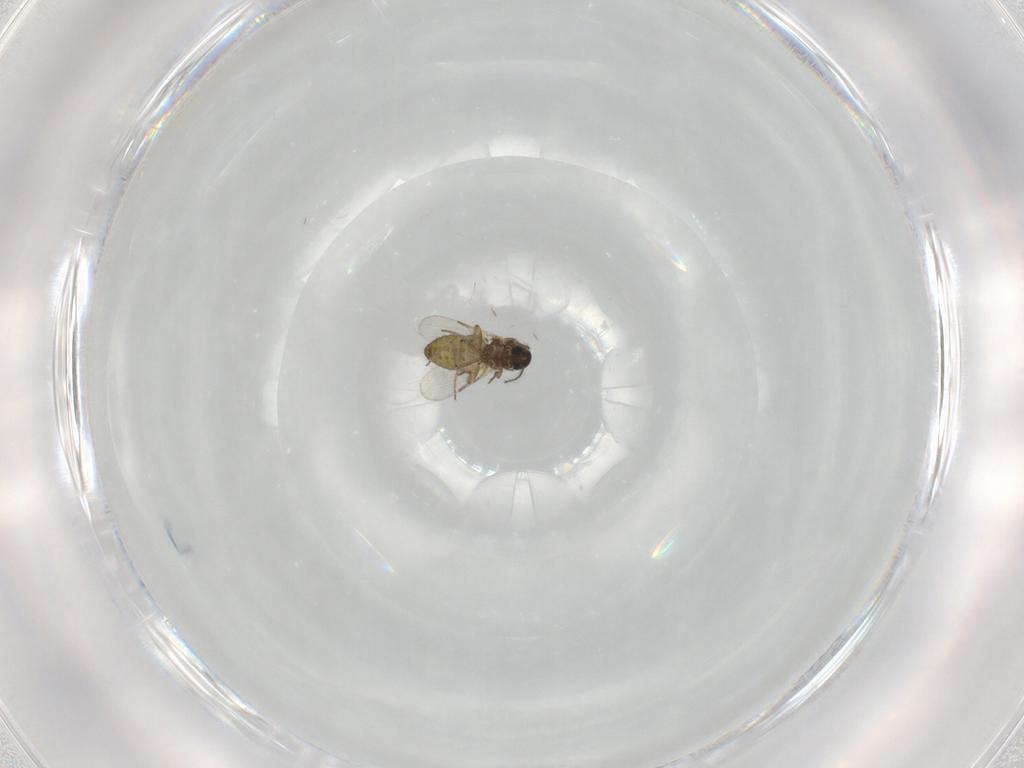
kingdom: Animalia
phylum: Arthropoda
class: Insecta
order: Diptera
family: Ceratopogonidae
